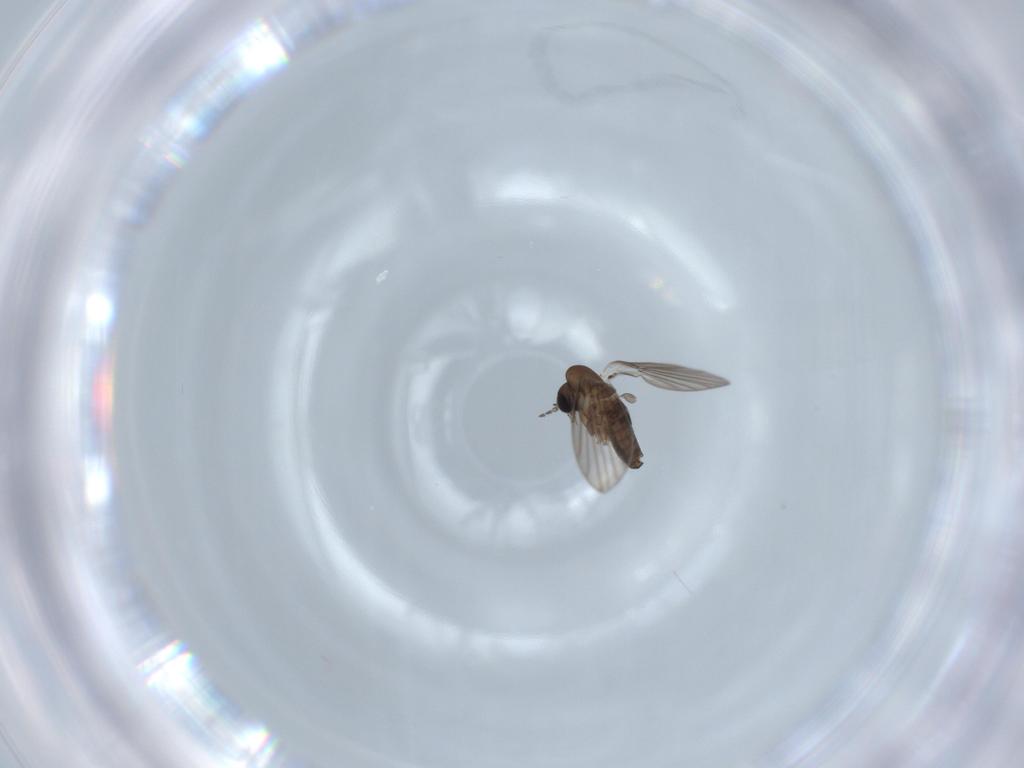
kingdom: Animalia
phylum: Arthropoda
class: Insecta
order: Diptera
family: Psychodidae
